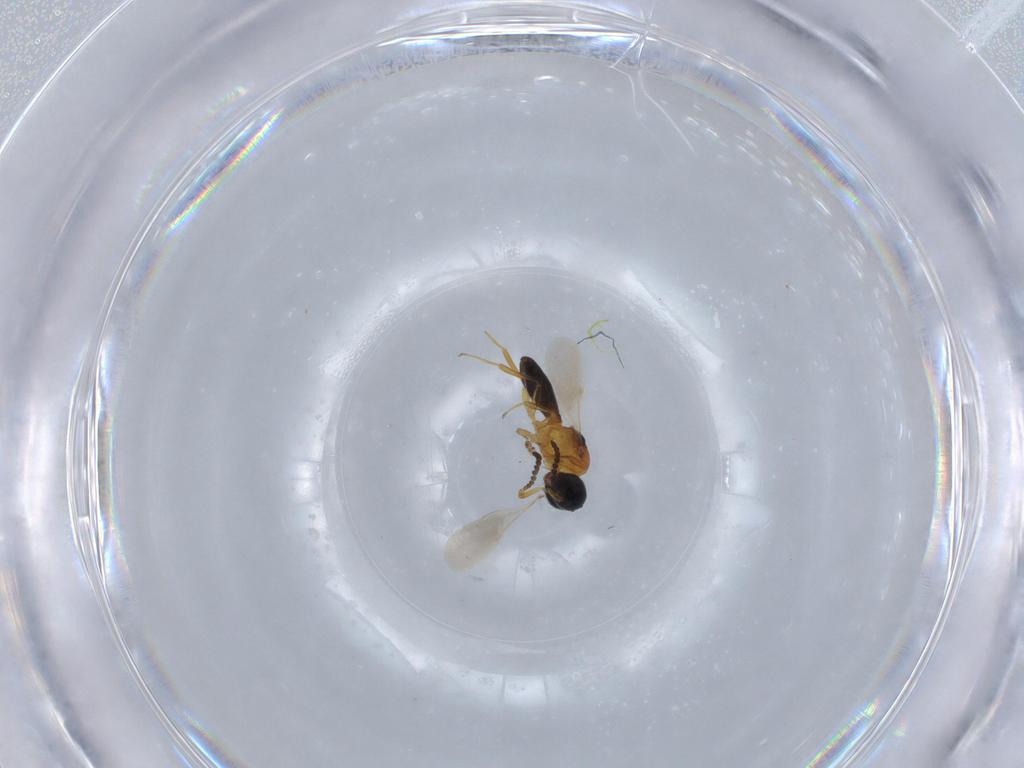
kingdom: Animalia
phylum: Arthropoda
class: Insecta
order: Hymenoptera
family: Scelionidae
